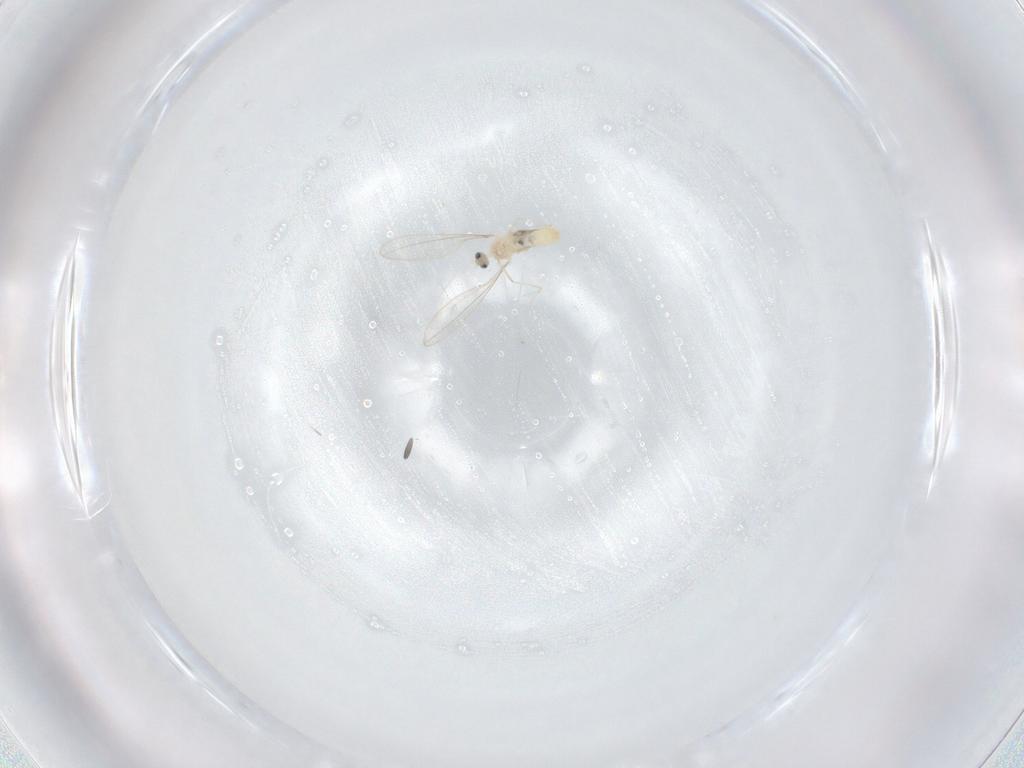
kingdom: Animalia
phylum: Arthropoda
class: Insecta
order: Diptera
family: Cecidomyiidae
